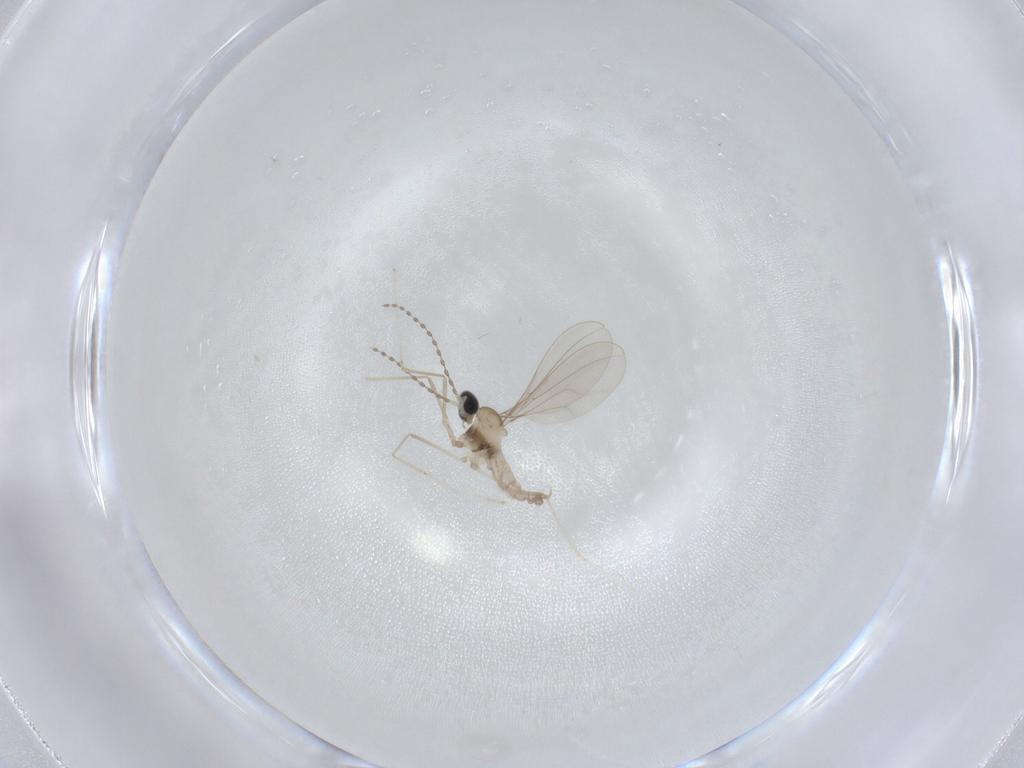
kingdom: Animalia
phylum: Arthropoda
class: Insecta
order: Diptera
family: Cecidomyiidae
